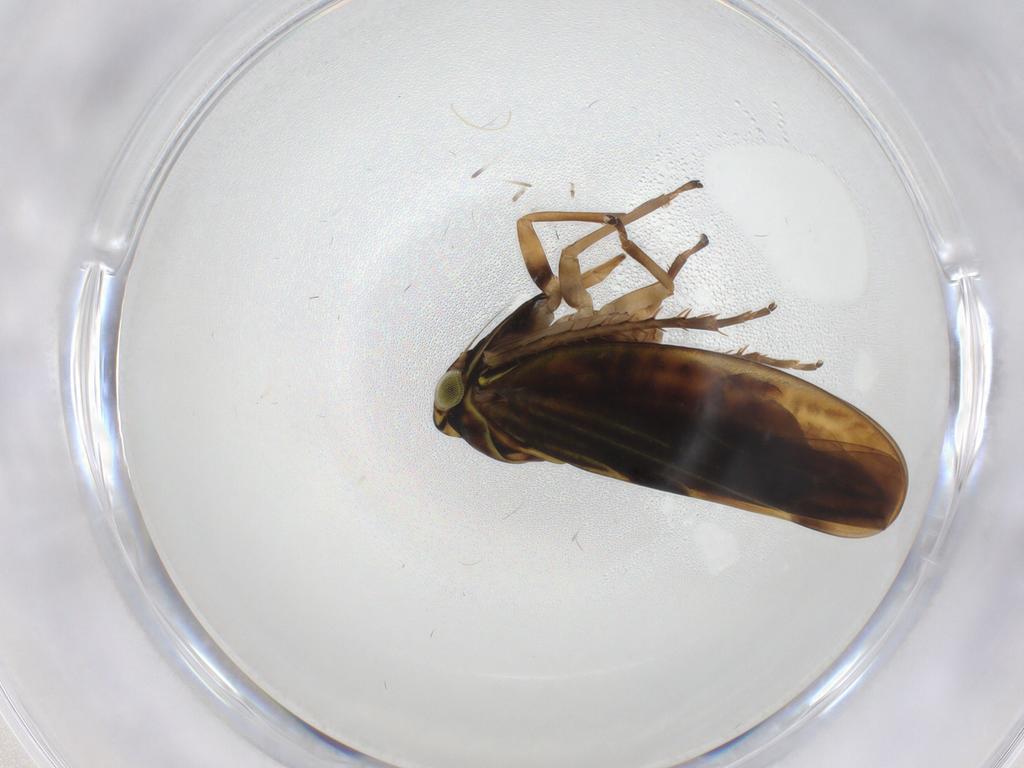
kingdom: Animalia
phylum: Arthropoda
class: Insecta
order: Hemiptera
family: Cicadellidae
